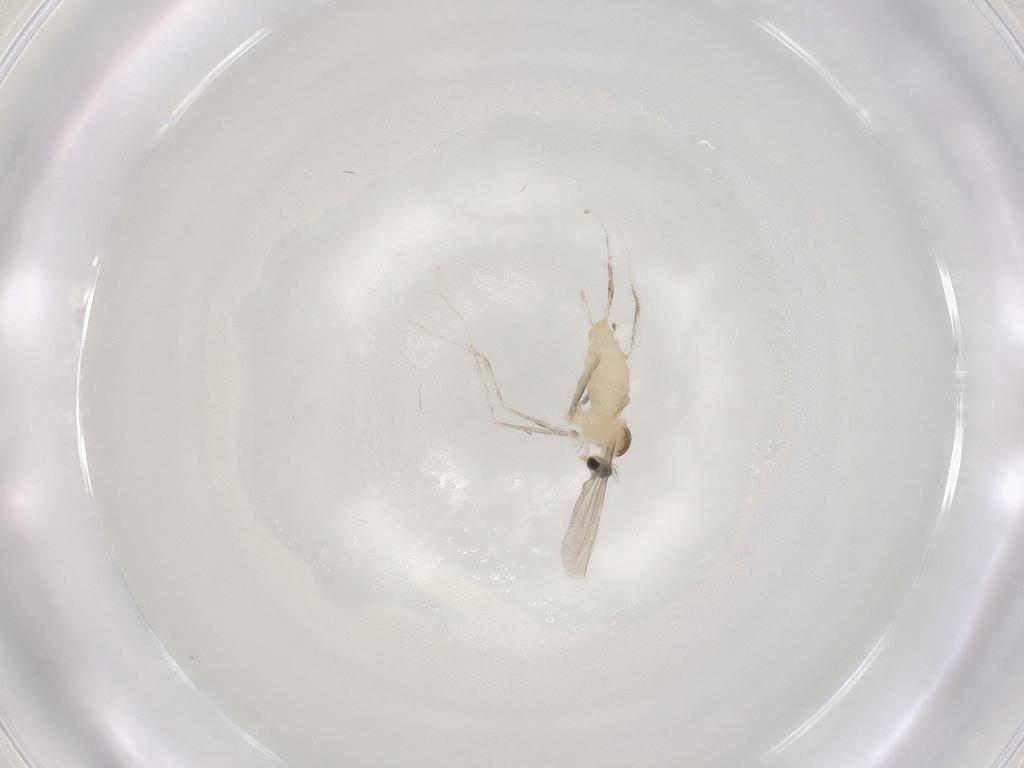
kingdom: Animalia
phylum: Arthropoda
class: Insecta
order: Diptera
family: Cecidomyiidae
